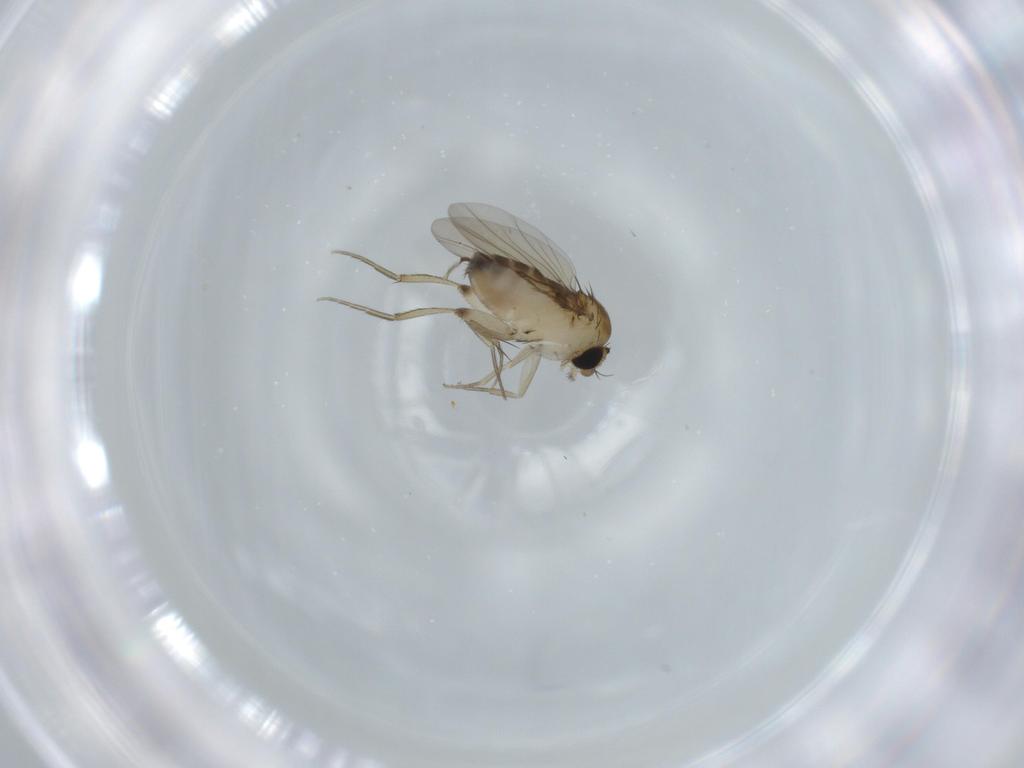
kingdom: Animalia
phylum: Arthropoda
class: Insecta
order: Diptera
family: Phoridae
